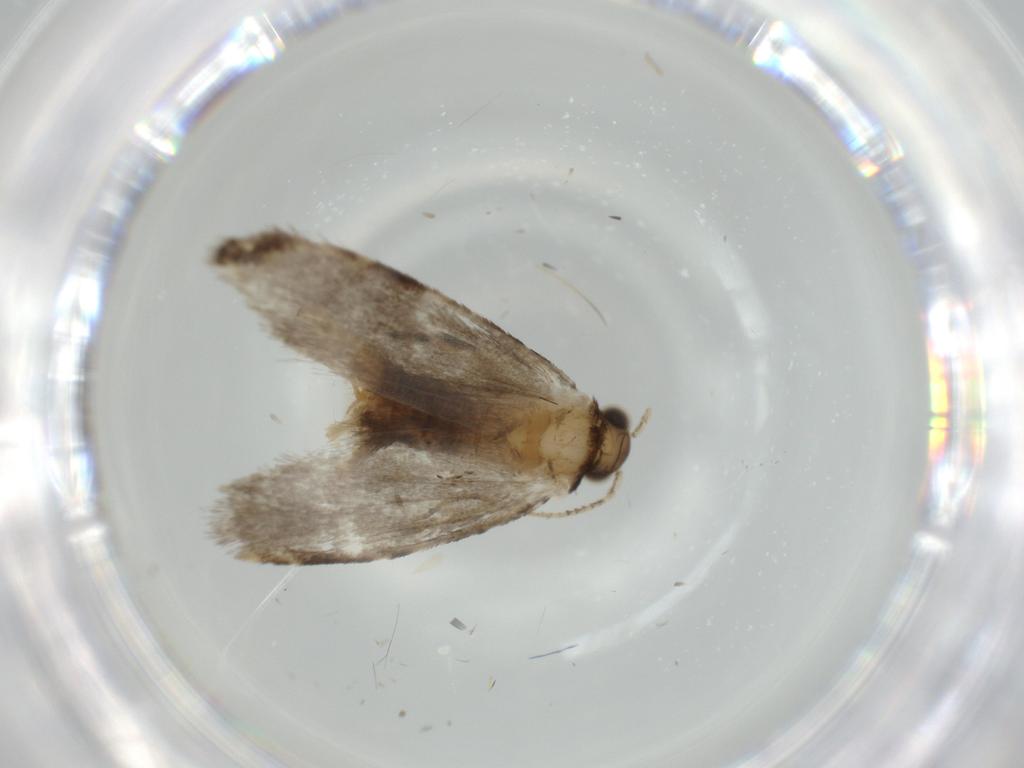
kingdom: Animalia
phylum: Arthropoda
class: Insecta
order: Lepidoptera
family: Tineidae
